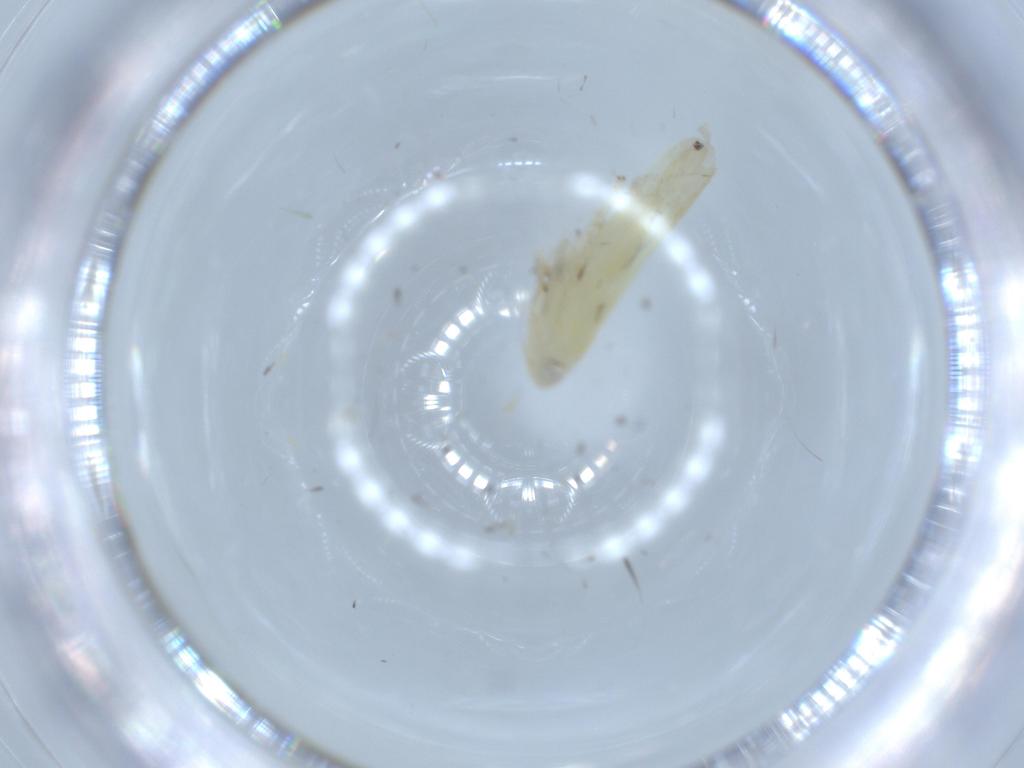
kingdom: Animalia
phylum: Arthropoda
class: Insecta
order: Hemiptera
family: Cicadellidae
